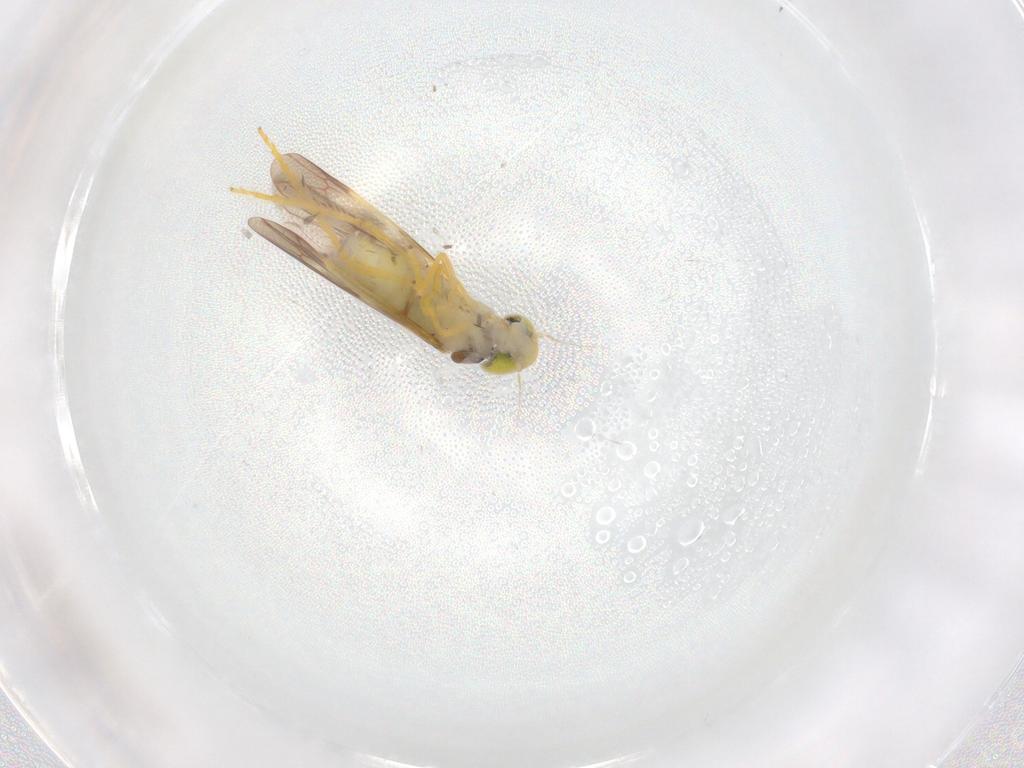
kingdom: Animalia
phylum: Arthropoda
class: Insecta
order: Hemiptera
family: Cicadellidae
